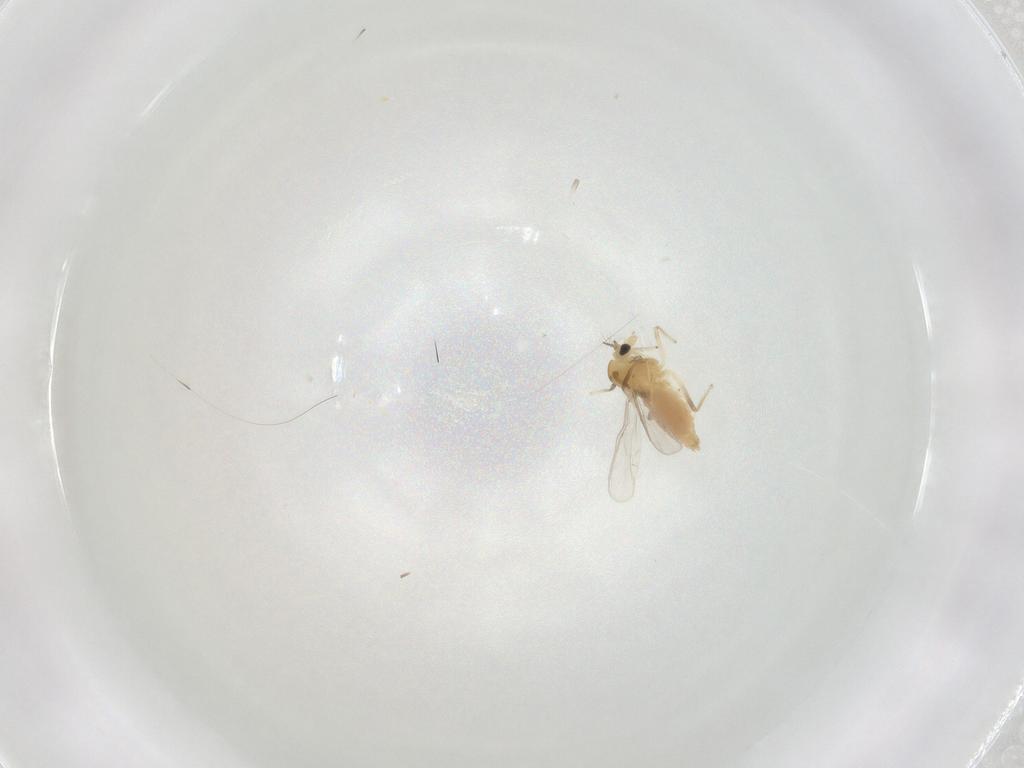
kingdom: Animalia
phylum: Arthropoda
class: Insecta
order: Diptera
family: Chironomidae
